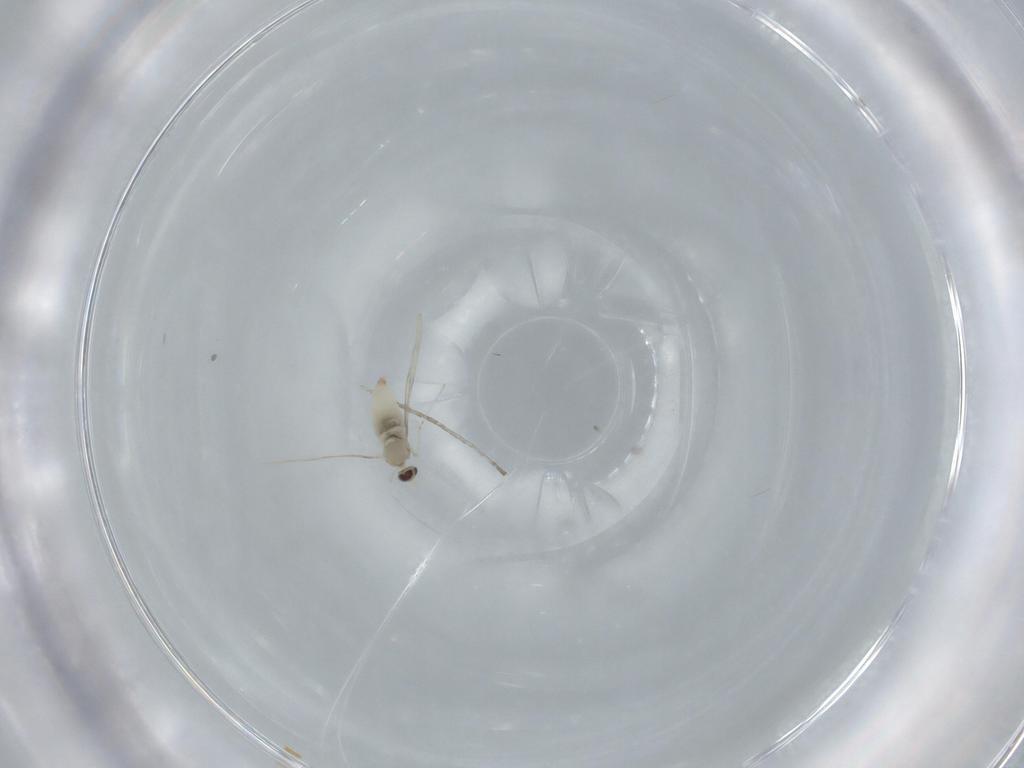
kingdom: Animalia
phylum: Arthropoda
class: Insecta
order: Diptera
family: Cecidomyiidae
